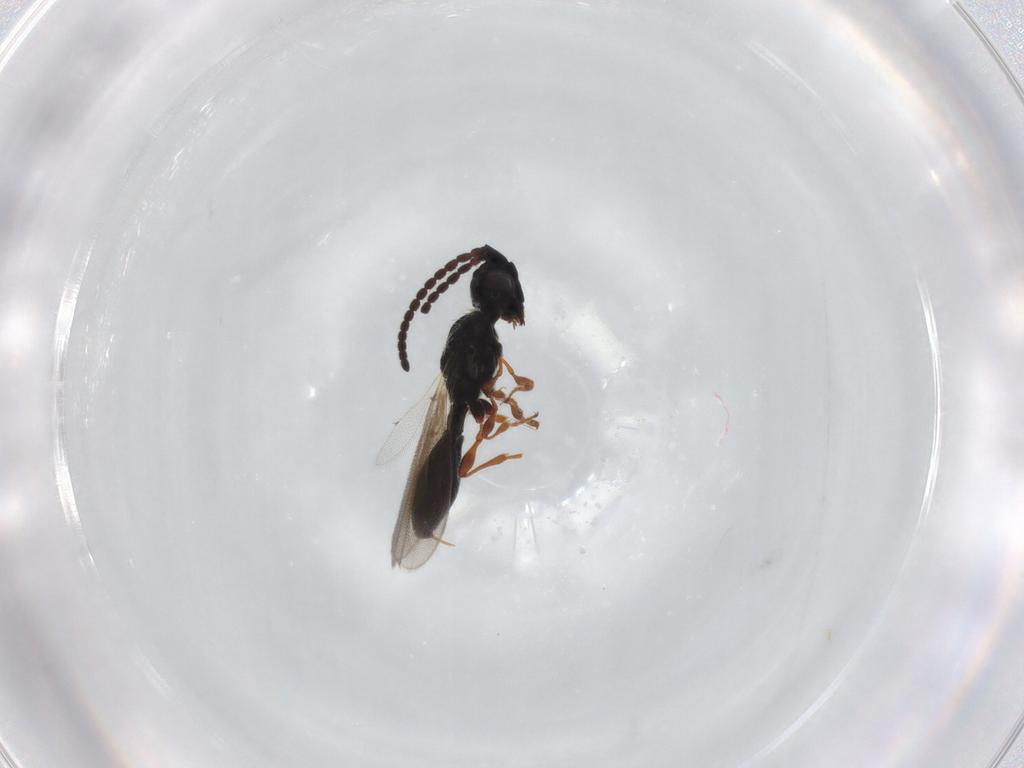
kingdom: Animalia
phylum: Arthropoda
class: Insecta
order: Hymenoptera
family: Diapriidae
